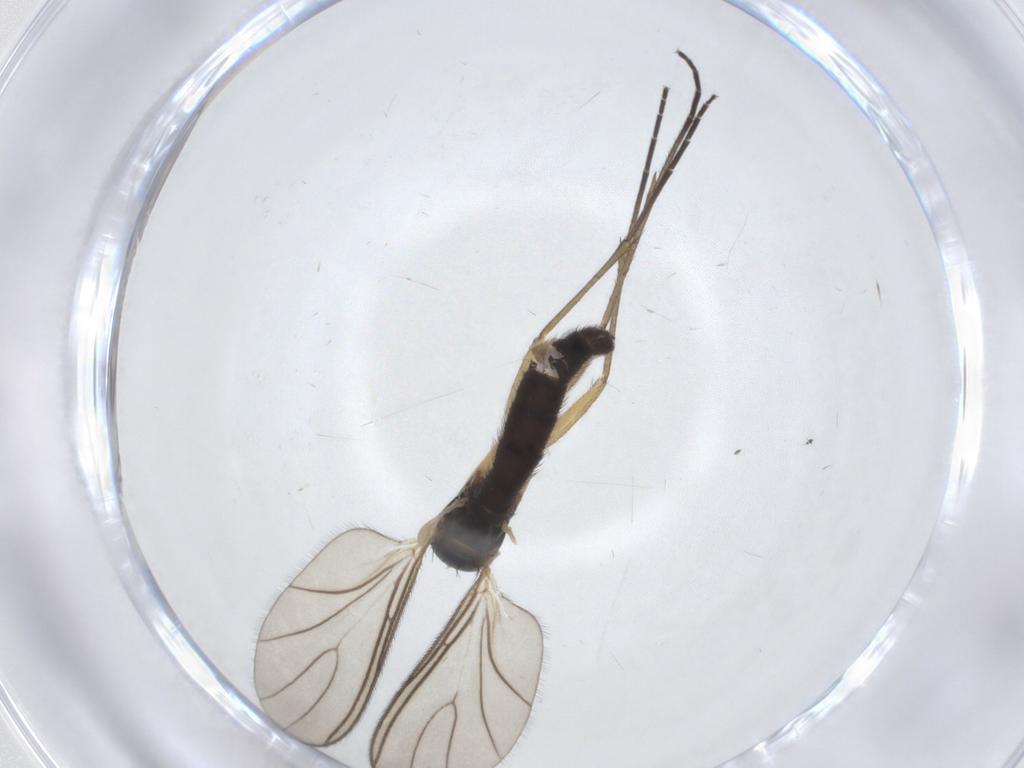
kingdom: Animalia
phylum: Arthropoda
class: Insecta
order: Diptera
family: Sciaridae
